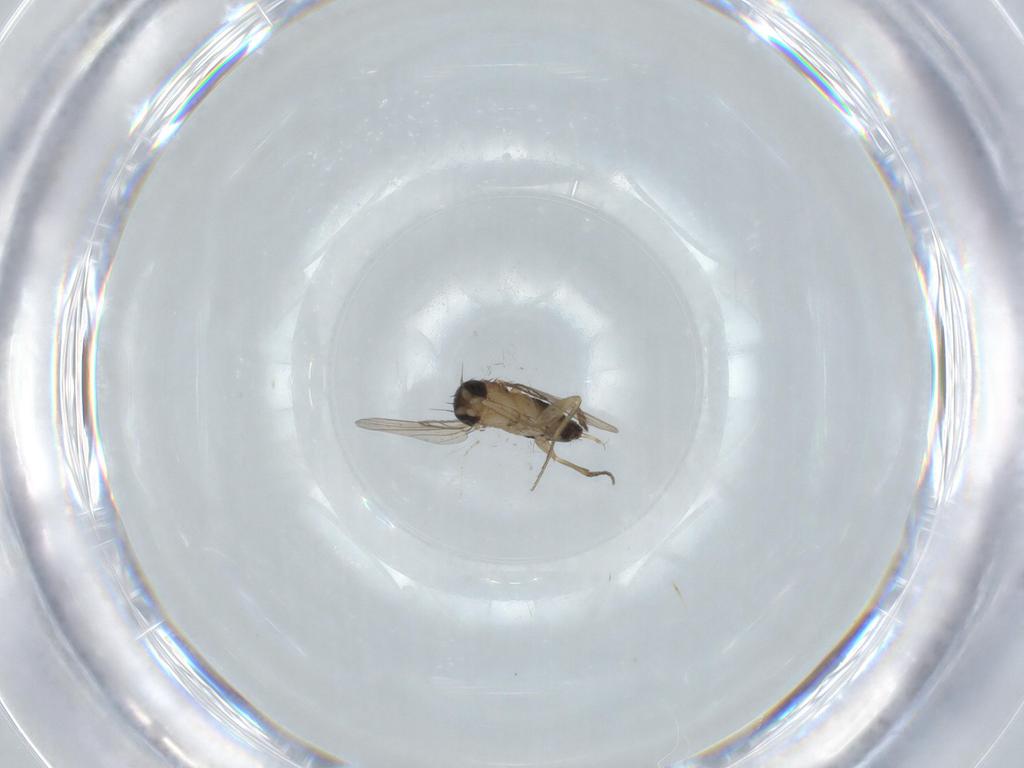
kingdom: Animalia
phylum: Arthropoda
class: Insecta
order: Diptera
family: Phoridae
